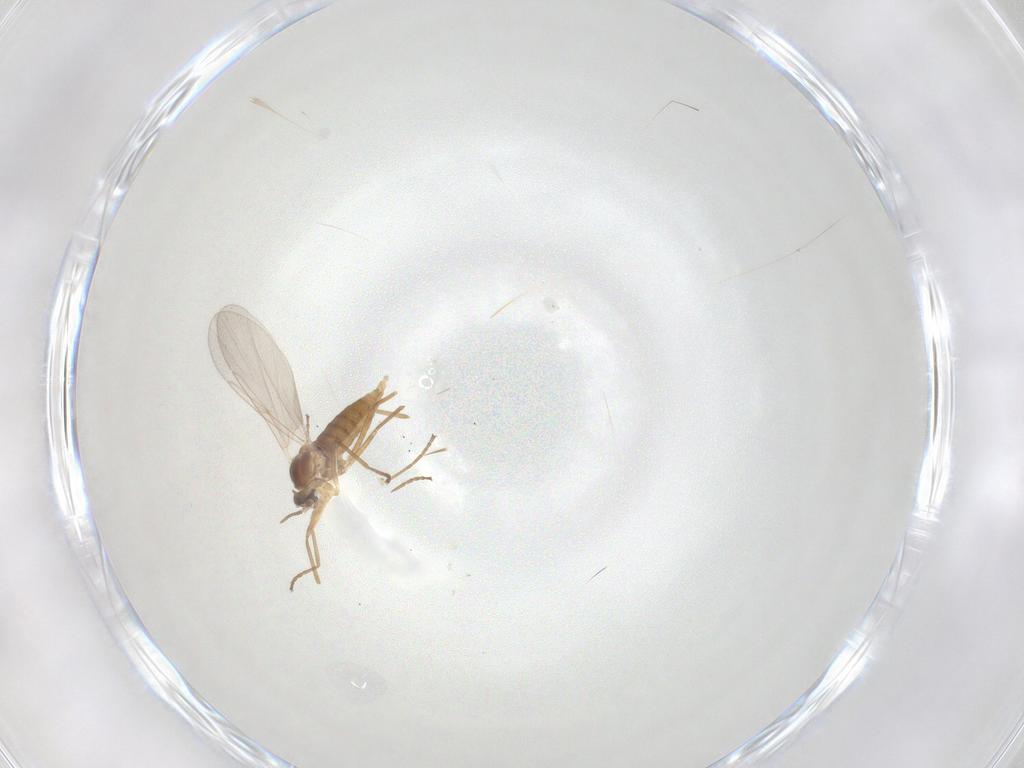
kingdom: Animalia
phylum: Arthropoda
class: Insecta
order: Diptera
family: Cecidomyiidae
